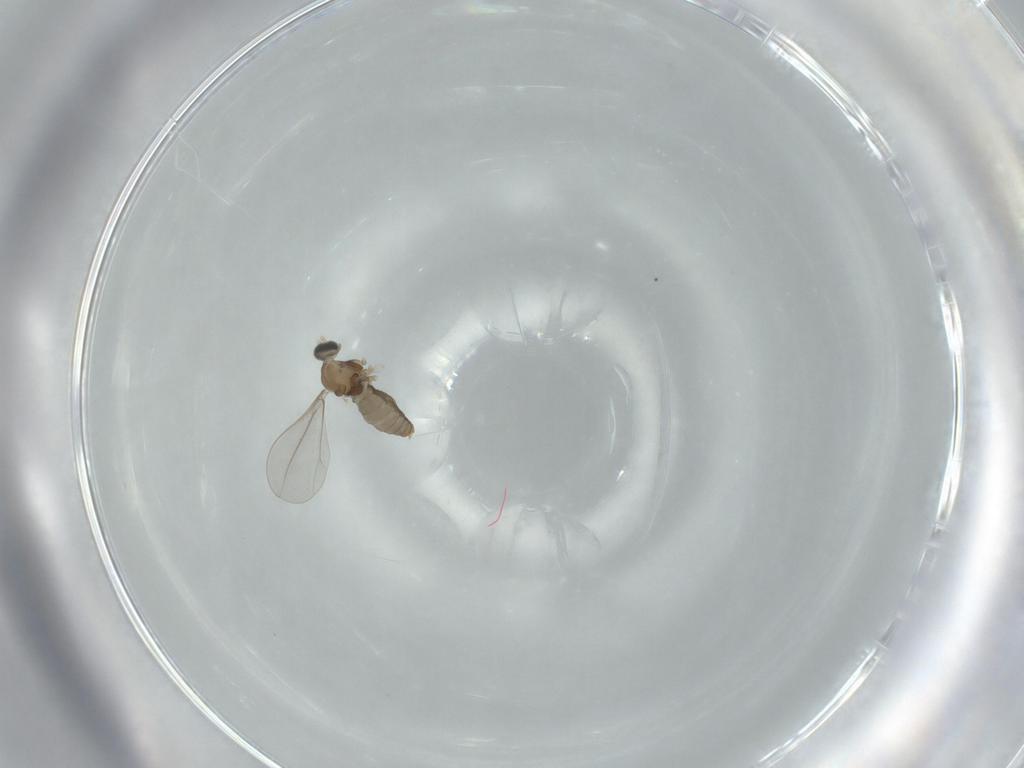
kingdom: Animalia
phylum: Arthropoda
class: Insecta
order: Diptera
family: Cecidomyiidae
